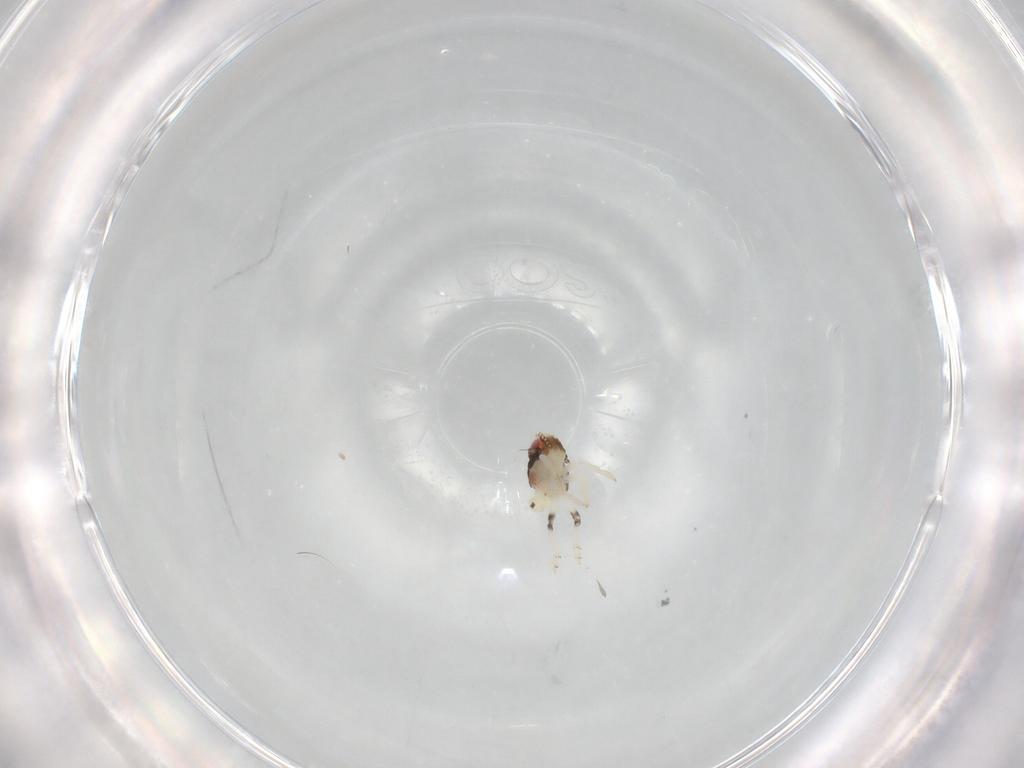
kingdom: Animalia
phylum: Arthropoda
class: Insecta
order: Hemiptera
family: Nogodinidae
